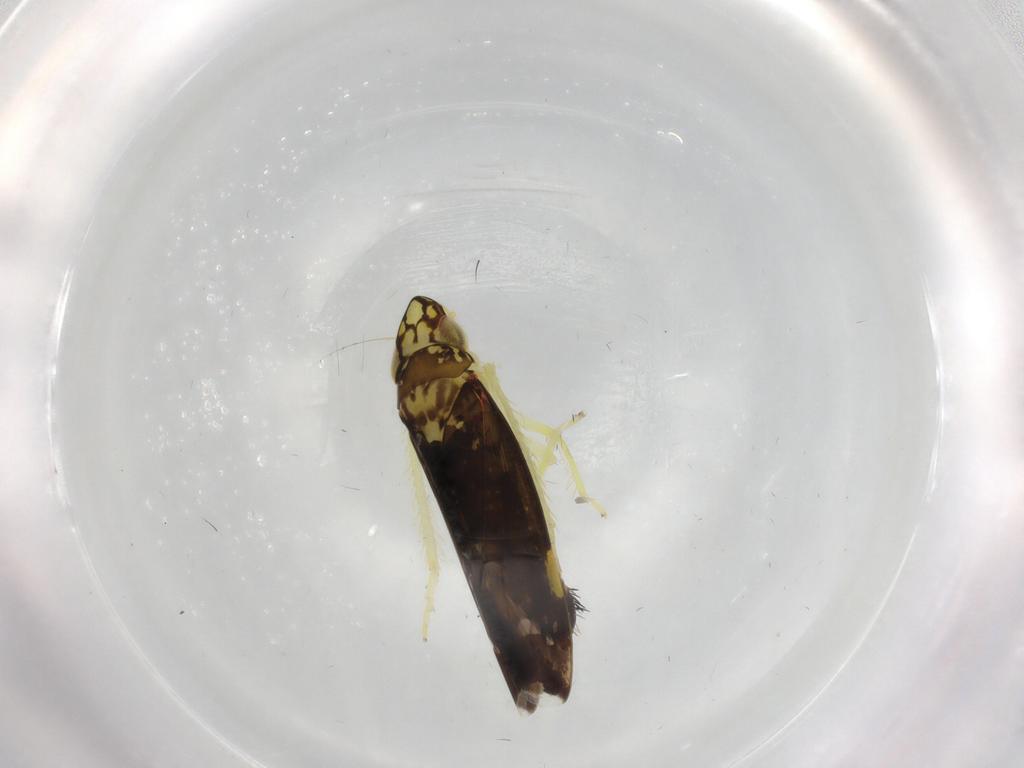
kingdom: Animalia
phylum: Arthropoda
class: Insecta
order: Hemiptera
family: Cicadellidae
